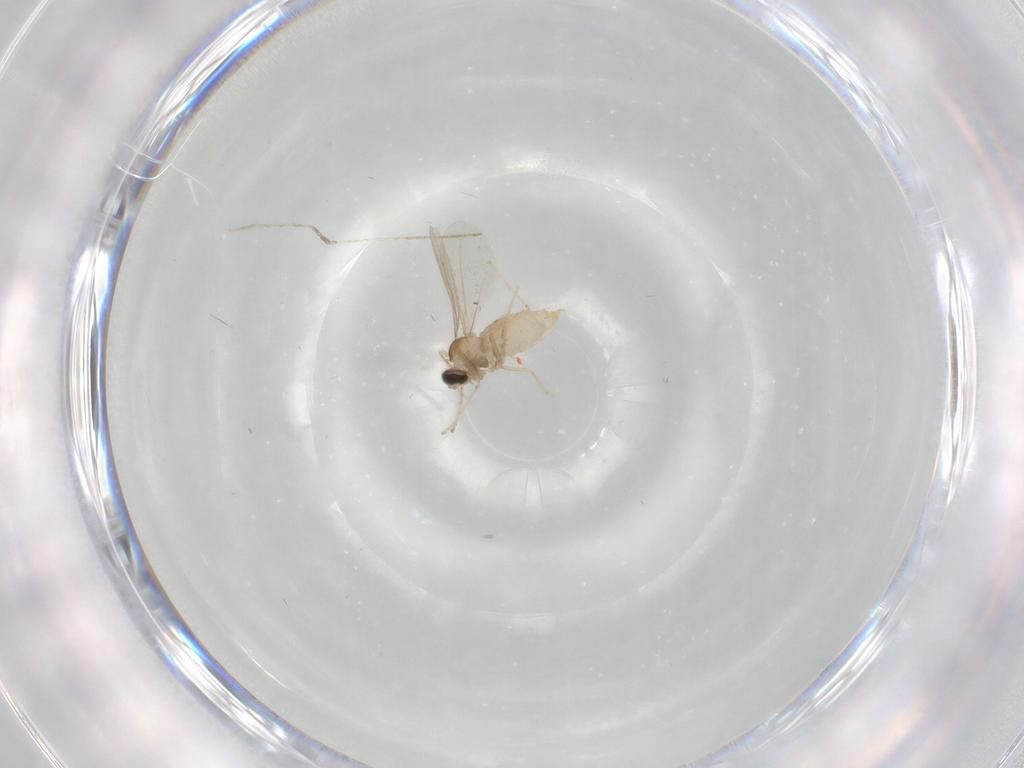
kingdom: Animalia
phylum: Arthropoda
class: Insecta
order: Diptera
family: Cecidomyiidae
